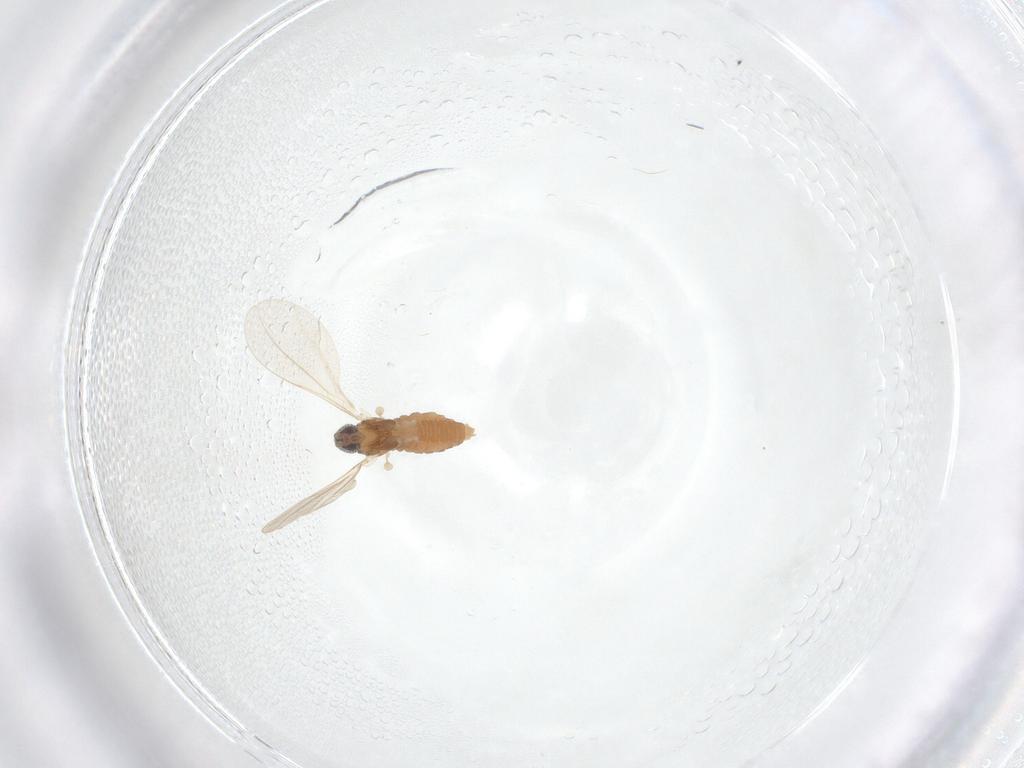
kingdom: Animalia
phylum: Arthropoda
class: Insecta
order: Diptera
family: Cecidomyiidae
